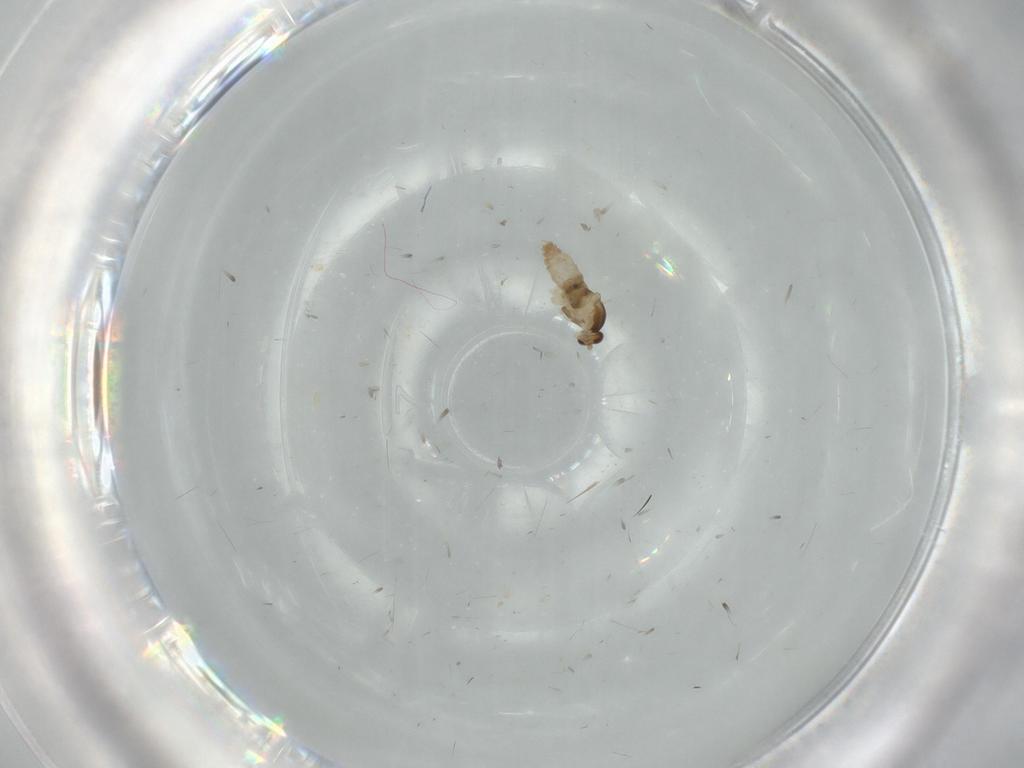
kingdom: Animalia
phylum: Arthropoda
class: Insecta
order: Diptera
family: Cecidomyiidae
